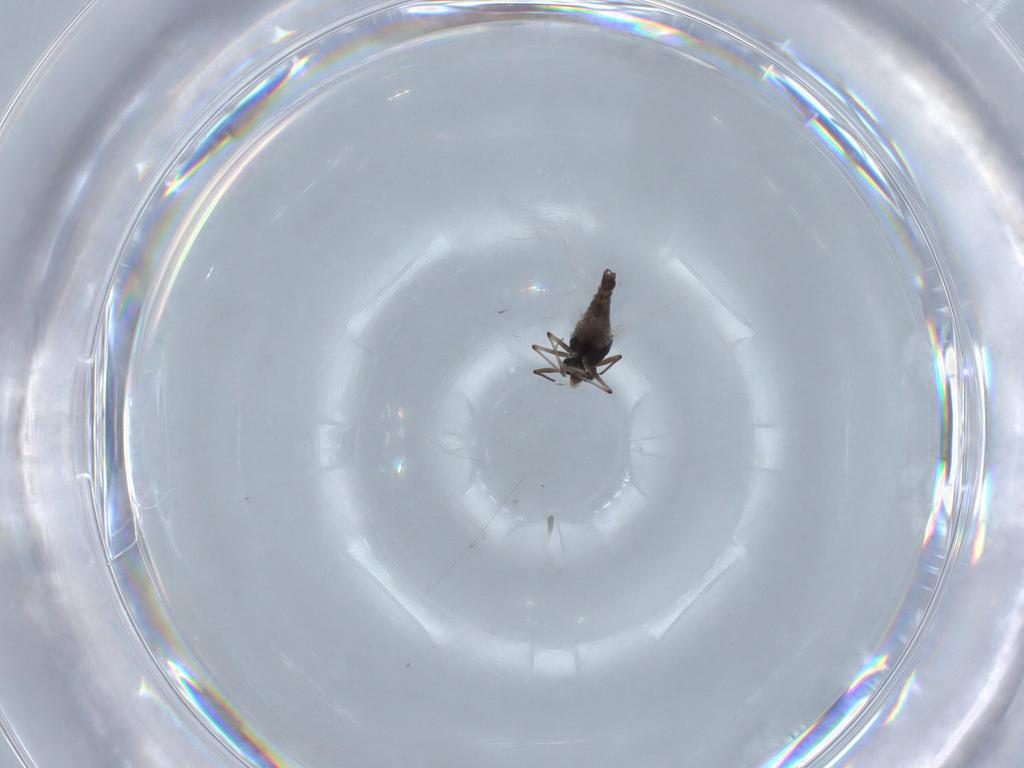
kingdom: Animalia
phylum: Arthropoda
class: Insecta
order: Diptera
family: Chironomidae
